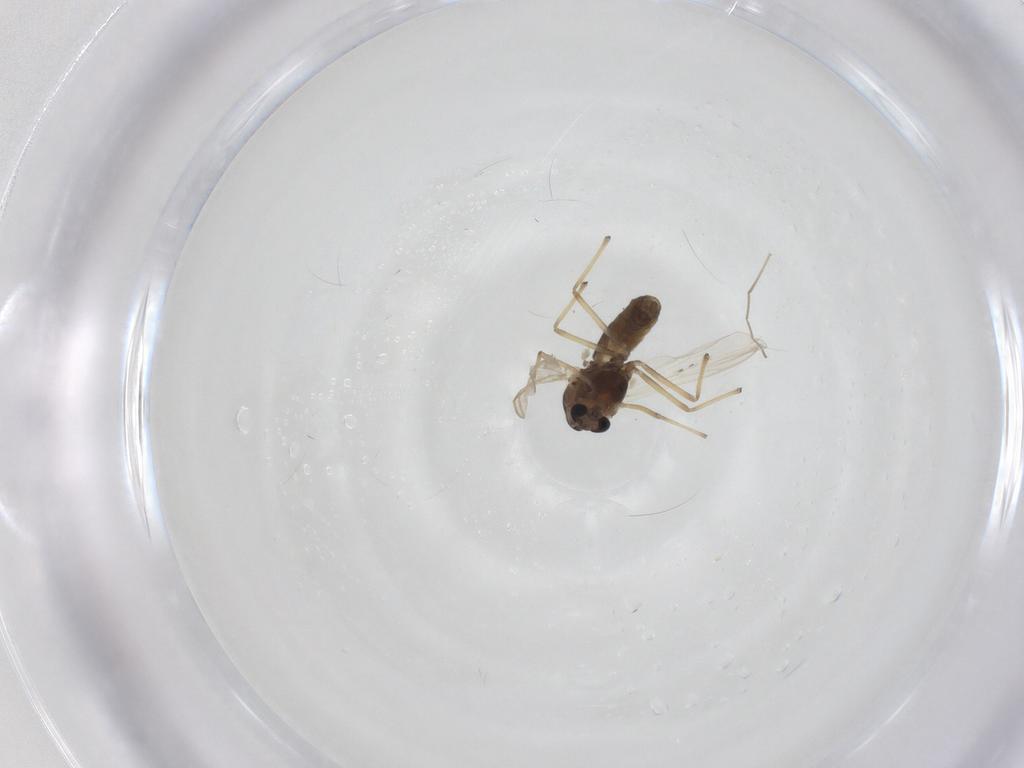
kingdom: Animalia
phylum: Arthropoda
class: Insecta
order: Diptera
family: Chironomidae
